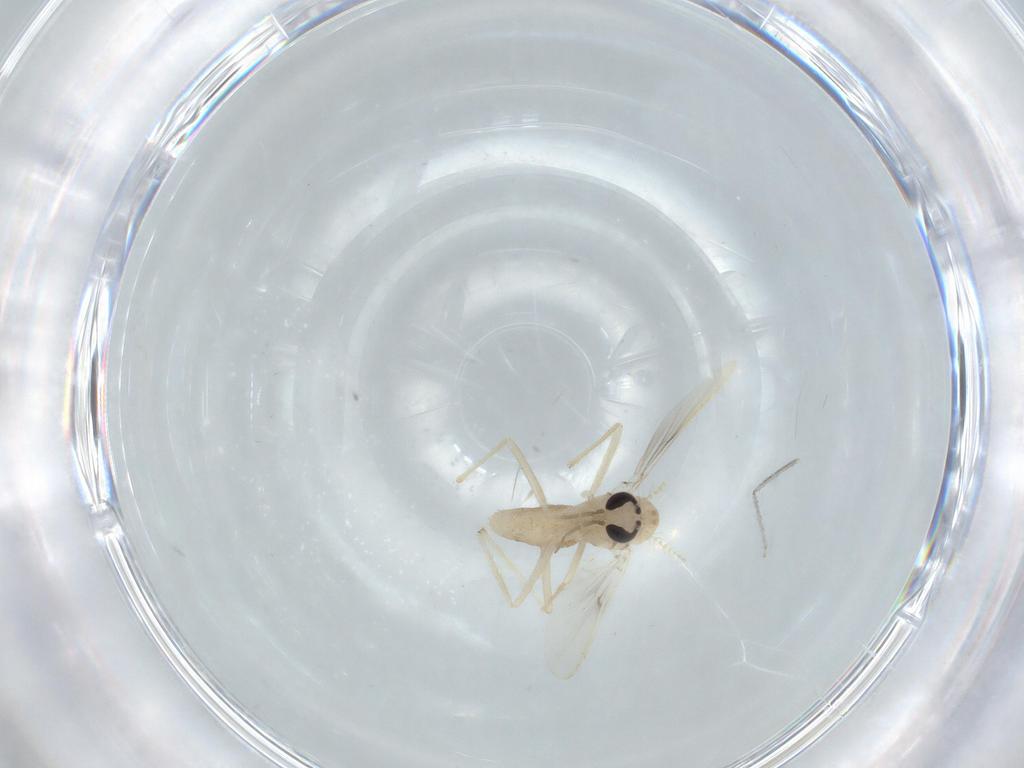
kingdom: Animalia
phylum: Arthropoda
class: Insecta
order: Diptera
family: Chironomidae
